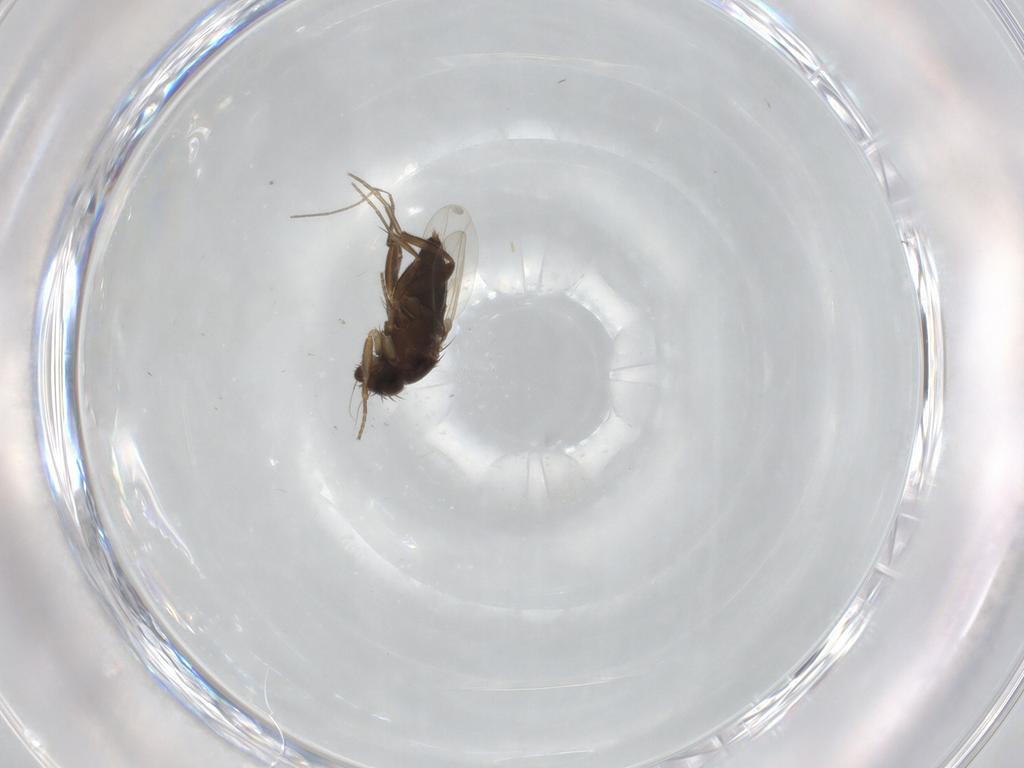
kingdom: Animalia
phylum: Arthropoda
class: Insecta
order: Diptera
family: Phoridae
